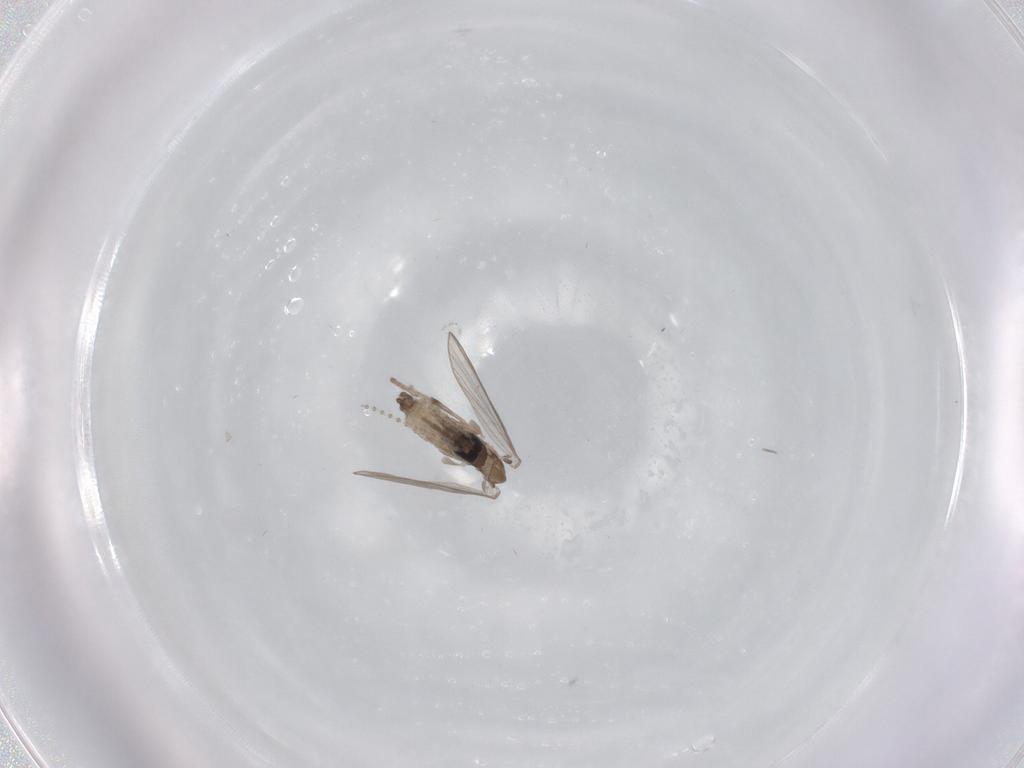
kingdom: Animalia
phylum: Arthropoda
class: Insecta
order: Diptera
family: Psychodidae
